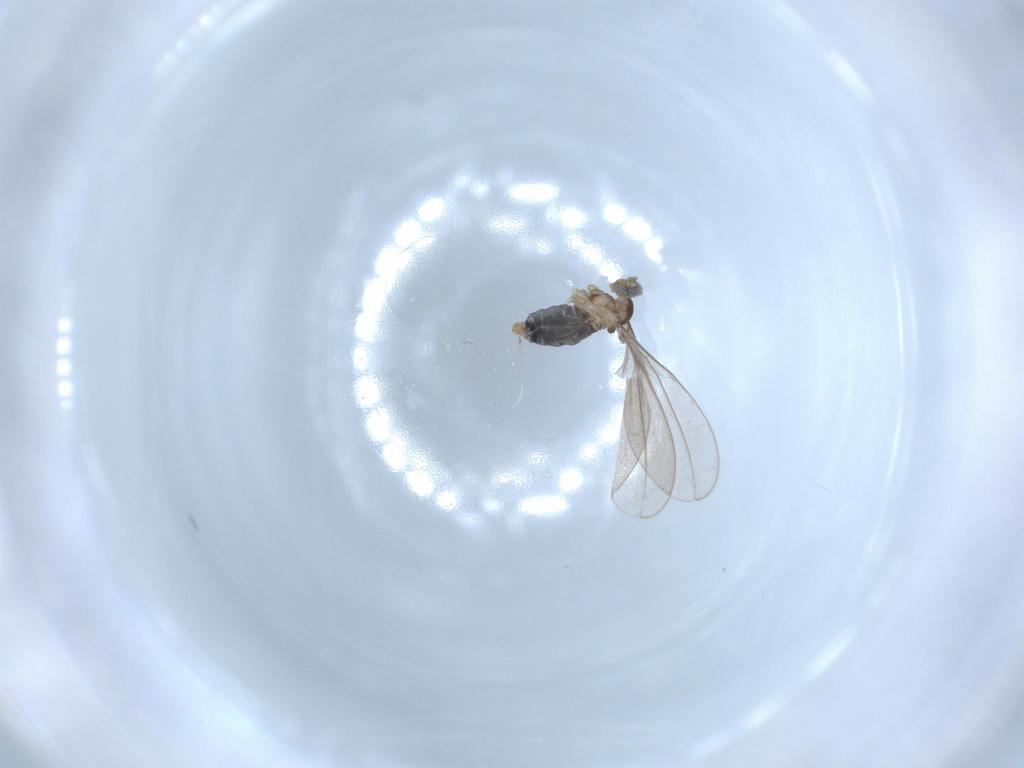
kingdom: Animalia
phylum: Arthropoda
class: Insecta
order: Diptera
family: Cecidomyiidae
